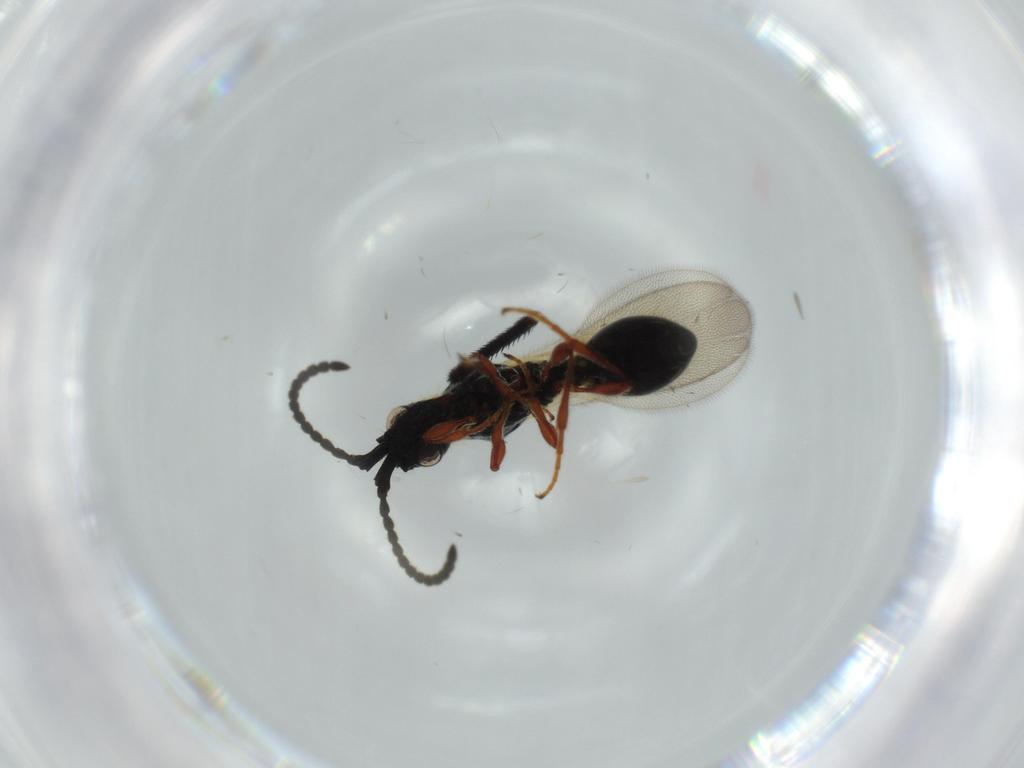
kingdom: Animalia
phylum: Arthropoda
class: Insecta
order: Hymenoptera
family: Diapriidae
